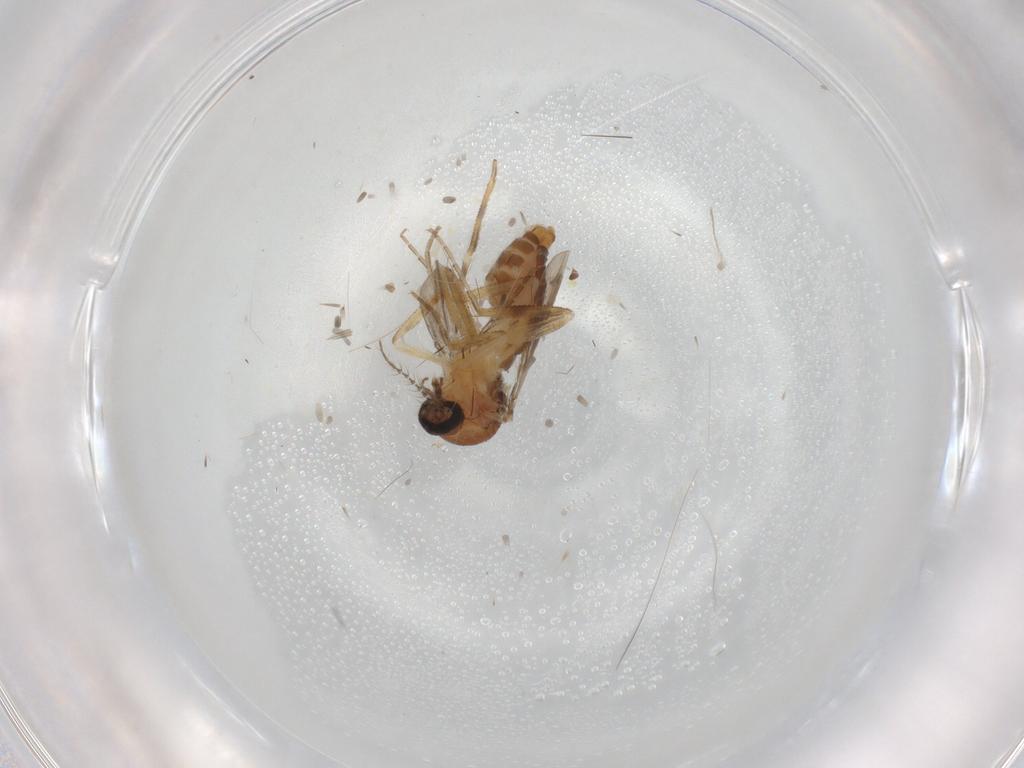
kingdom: Animalia
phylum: Arthropoda
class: Insecta
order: Diptera
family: Ceratopogonidae
